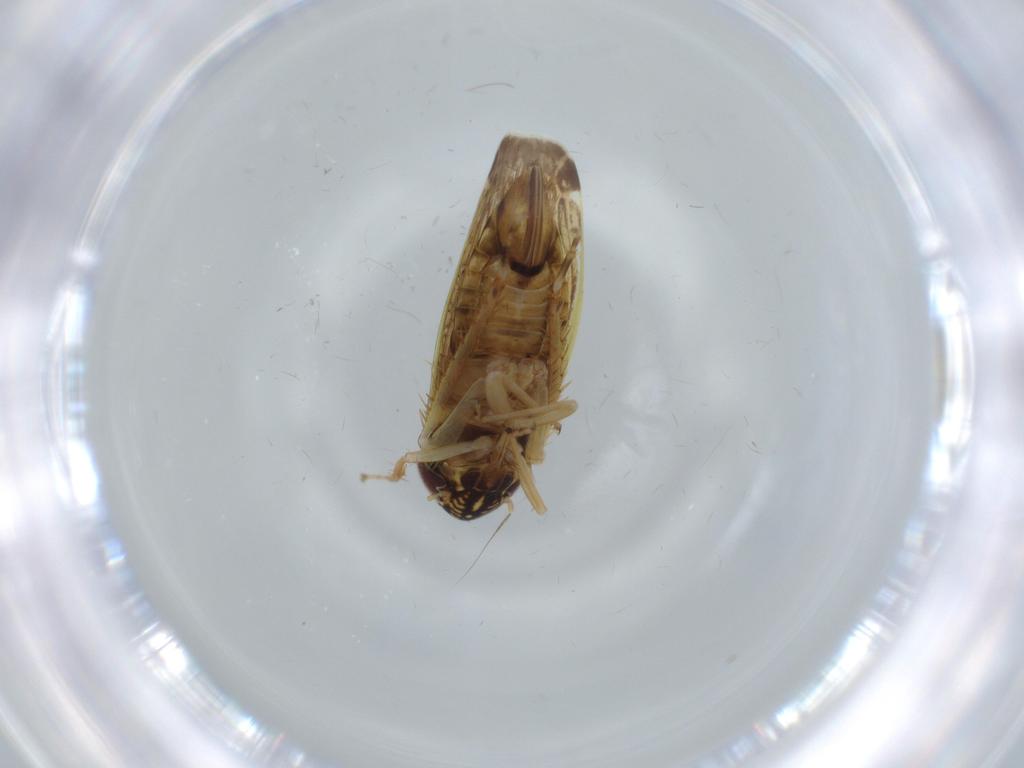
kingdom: Animalia
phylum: Arthropoda
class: Insecta
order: Hemiptera
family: Cicadellidae
